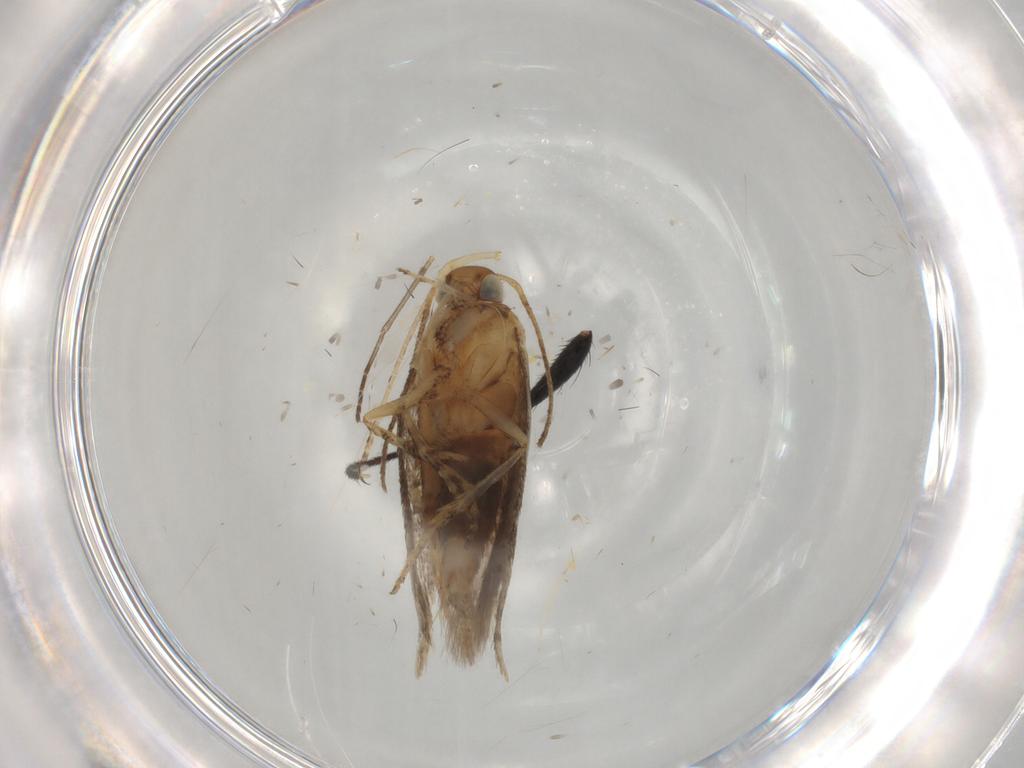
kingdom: Animalia
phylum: Arthropoda
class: Insecta
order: Lepidoptera
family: Gelechiidae
